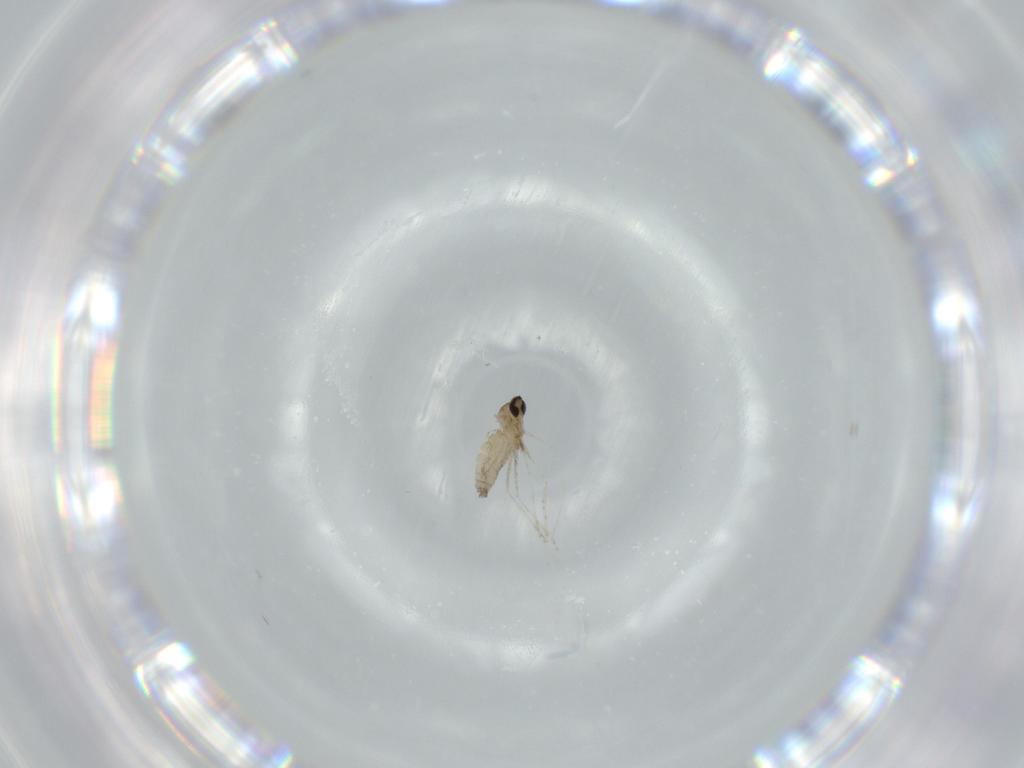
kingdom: Animalia
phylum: Arthropoda
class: Insecta
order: Diptera
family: Cecidomyiidae
